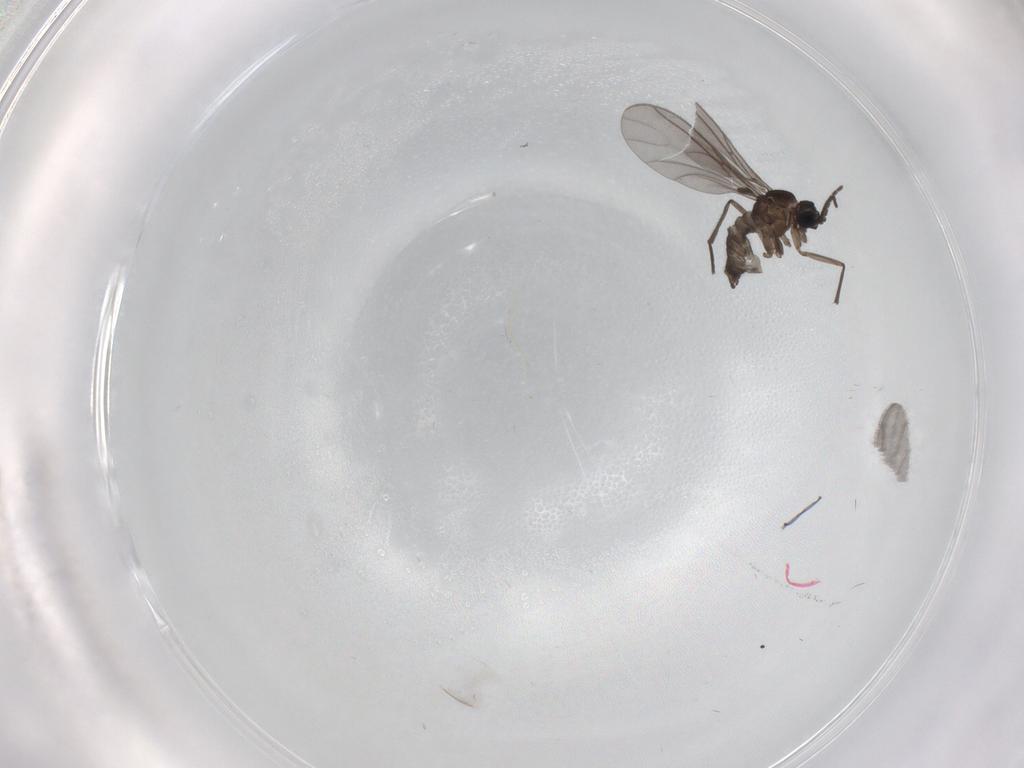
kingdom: Animalia
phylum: Arthropoda
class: Insecta
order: Diptera
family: Sciaridae
